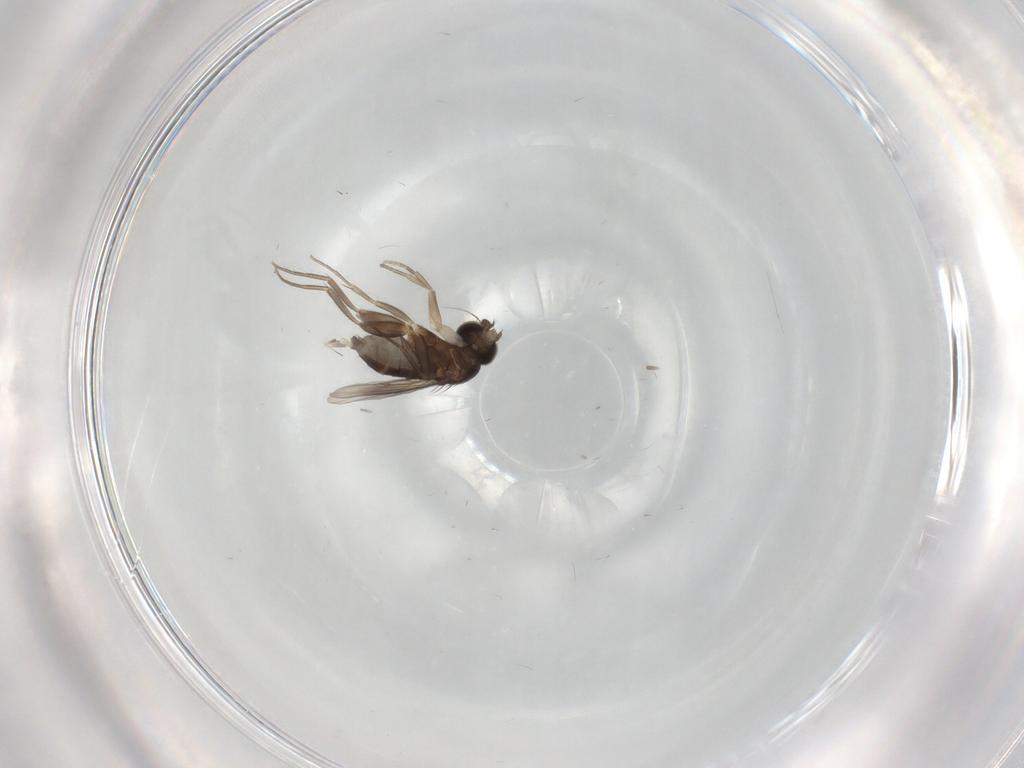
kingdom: Animalia
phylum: Arthropoda
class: Insecta
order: Diptera
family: Phoridae
